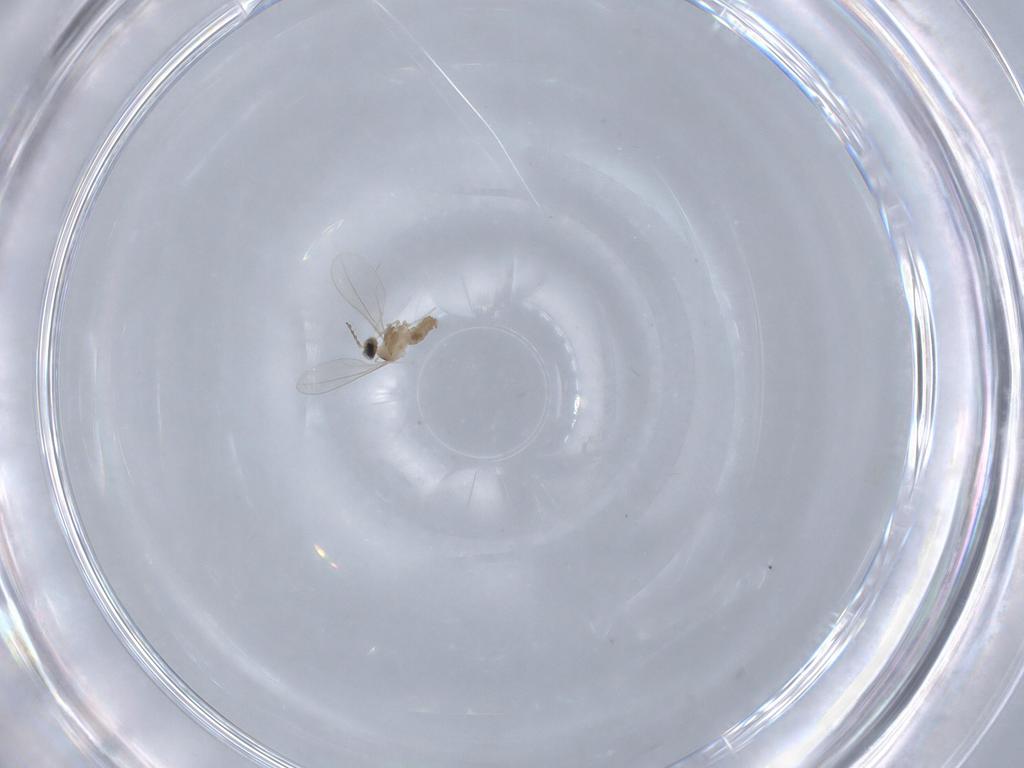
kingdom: Animalia
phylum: Arthropoda
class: Insecta
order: Diptera
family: Cecidomyiidae
